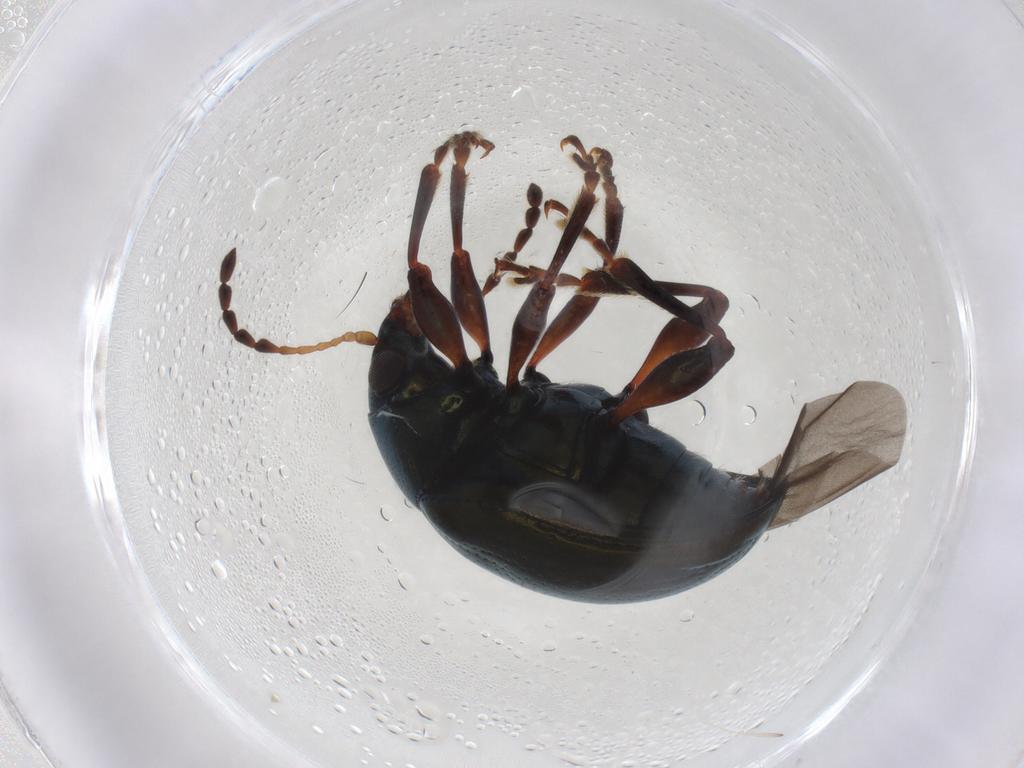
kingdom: Animalia
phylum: Arthropoda
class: Insecta
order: Coleoptera
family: Chrysomelidae
